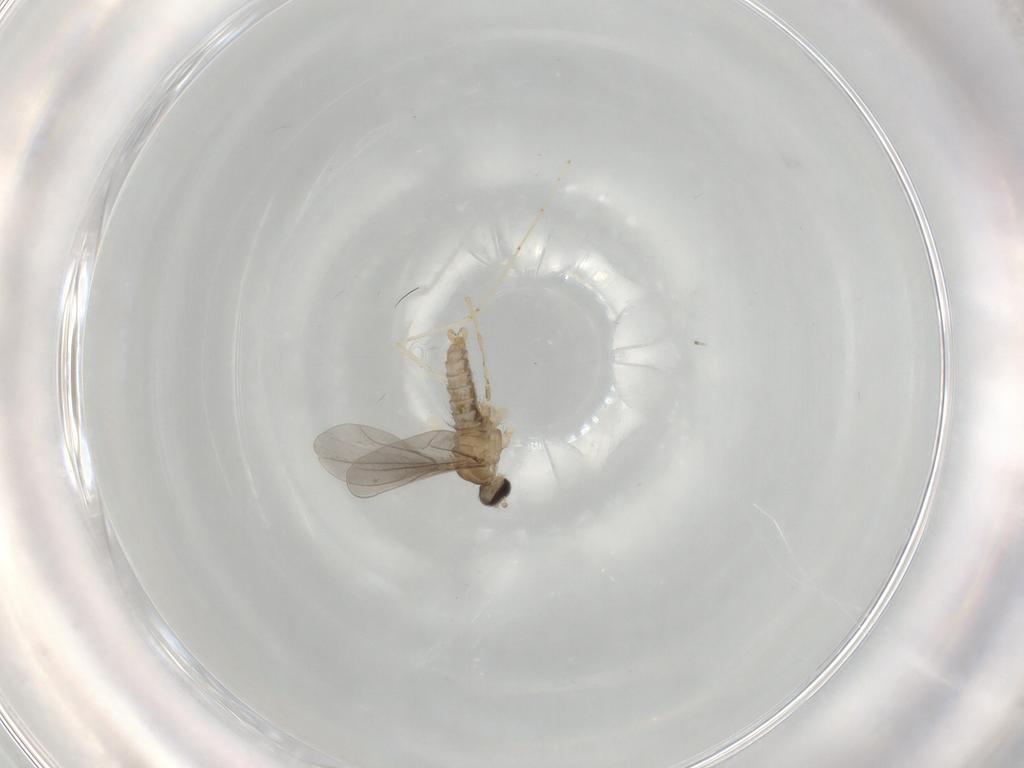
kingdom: Animalia
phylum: Arthropoda
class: Insecta
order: Diptera
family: Cecidomyiidae
